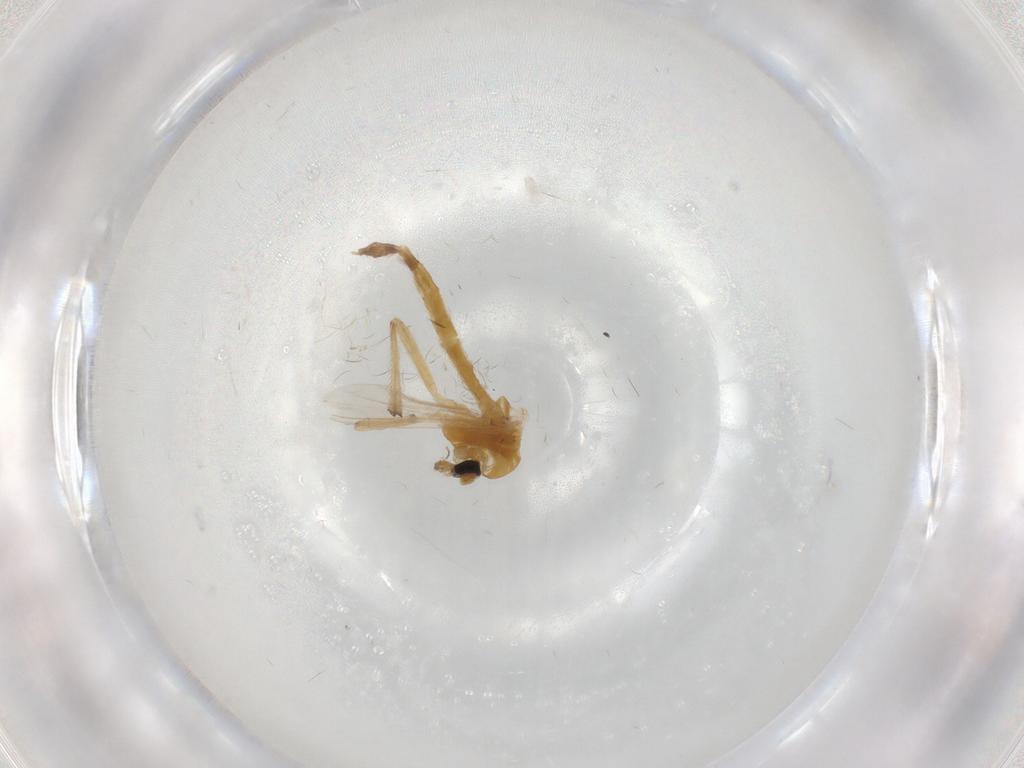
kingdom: Animalia
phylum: Arthropoda
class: Insecta
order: Diptera
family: Chironomidae
